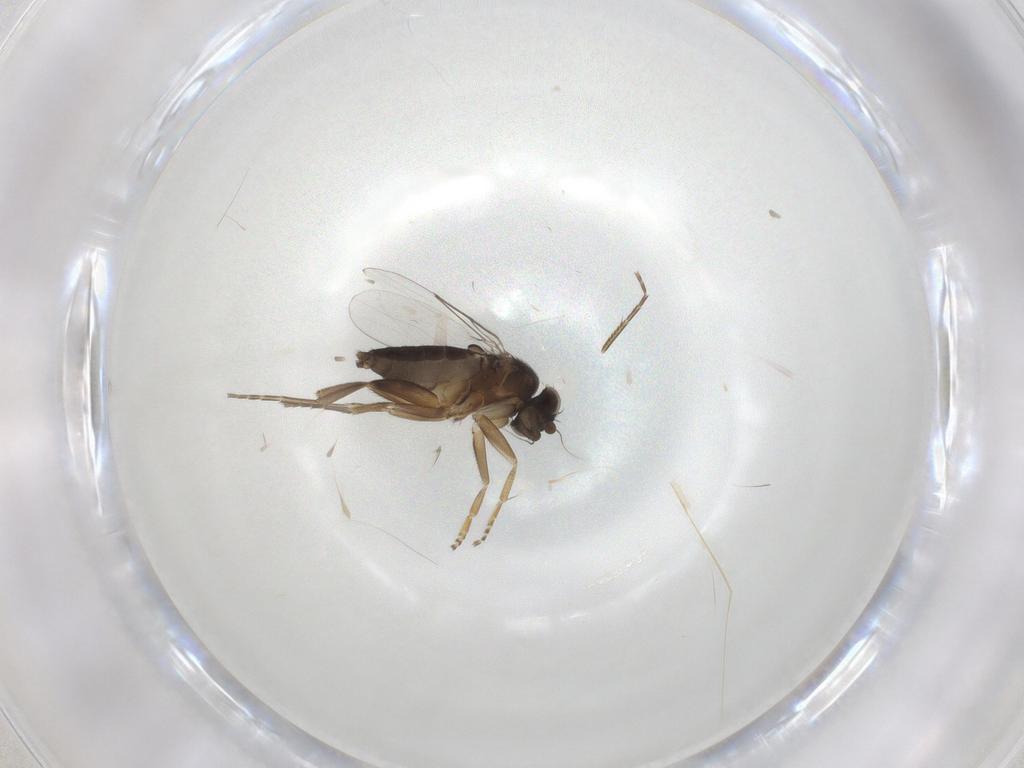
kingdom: Animalia
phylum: Arthropoda
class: Insecta
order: Diptera
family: Phoridae
